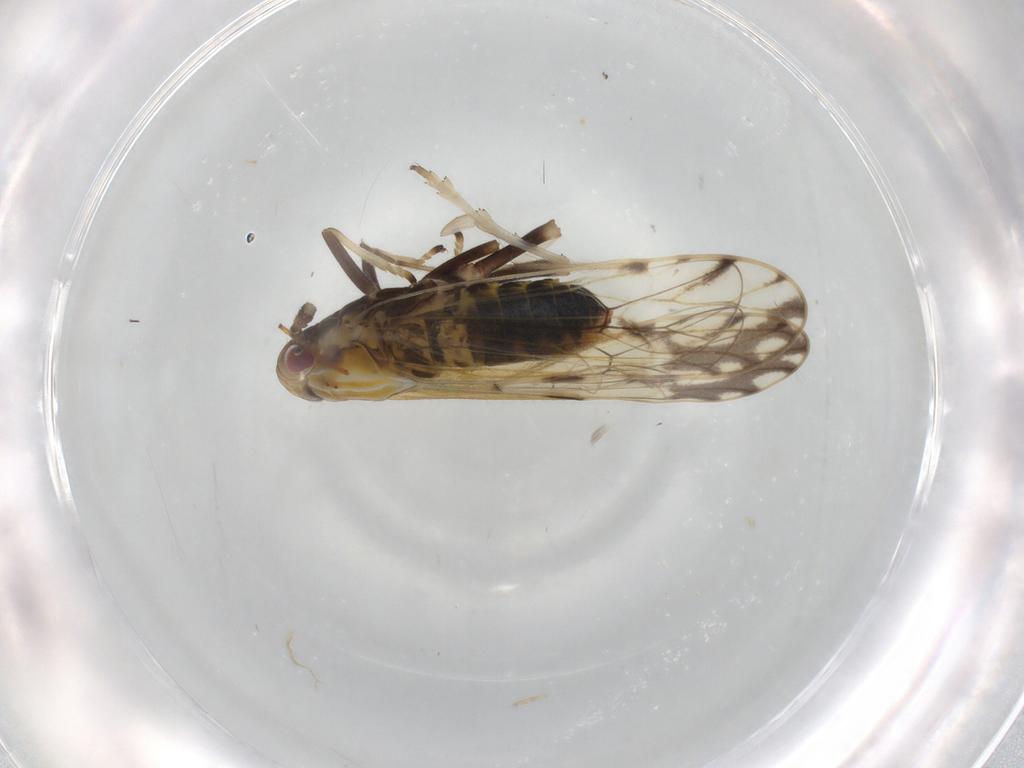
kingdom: Animalia
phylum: Arthropoda
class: Insecta
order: Hemiptera
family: Delphacidae
